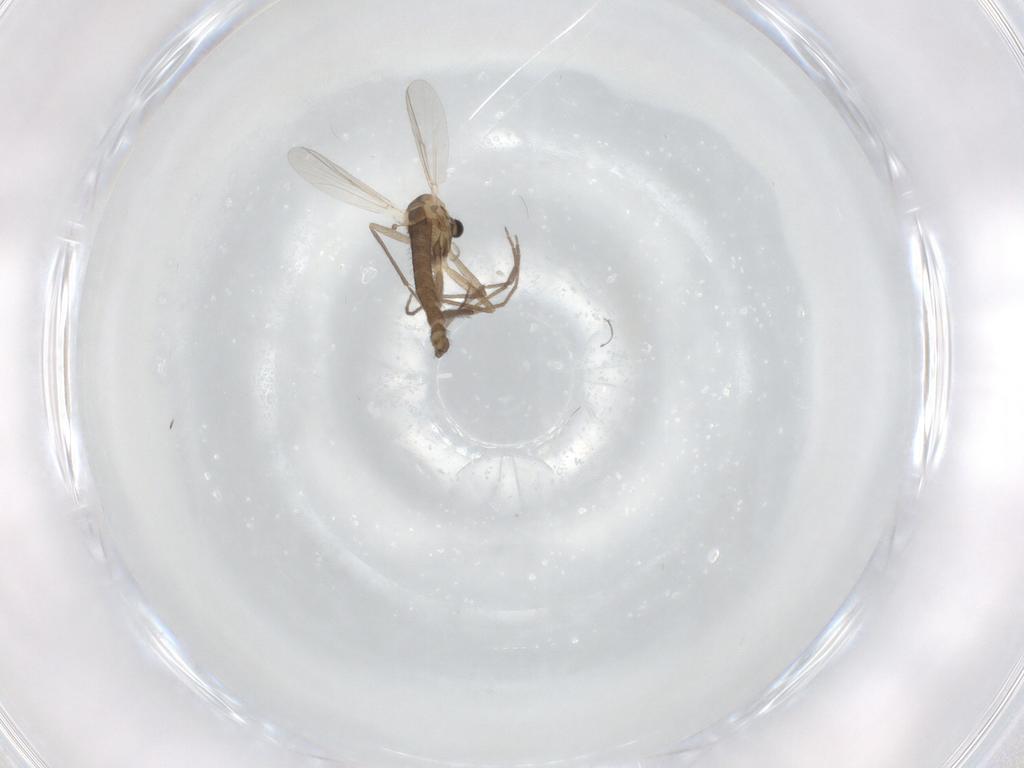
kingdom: Animalia
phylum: Arthropoda
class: Insecta
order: Diptera
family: Chironomidae
